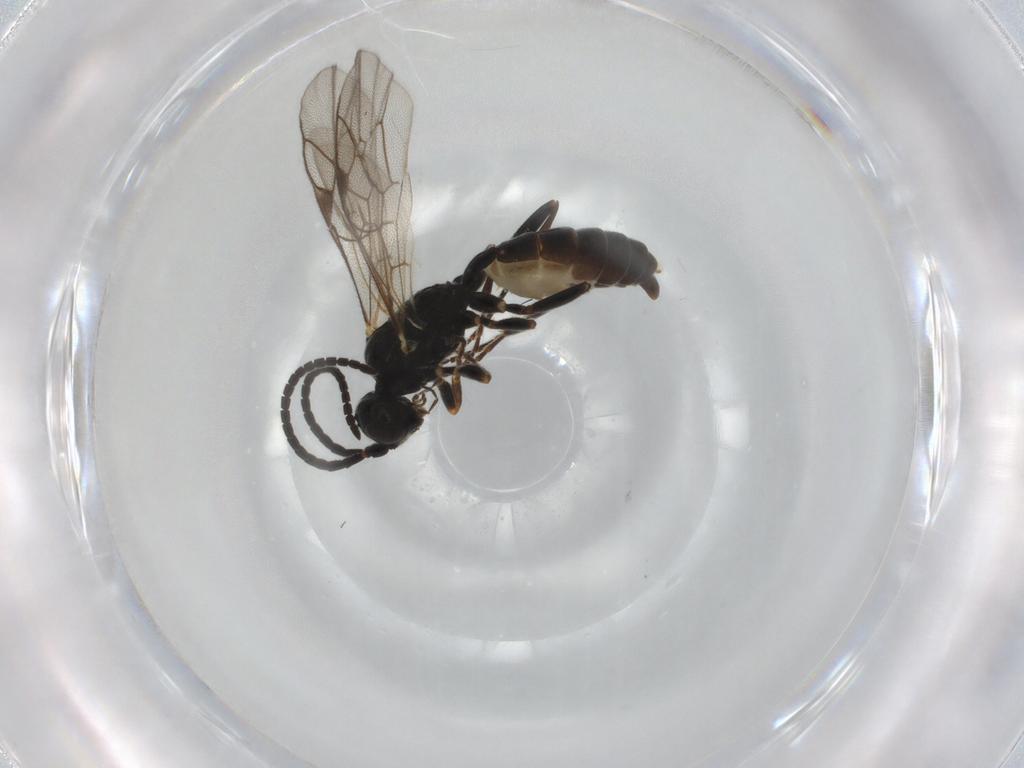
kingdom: Animalia
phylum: Arthropoda
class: Insecta
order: Hymenoptera
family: Ichneumonidae
